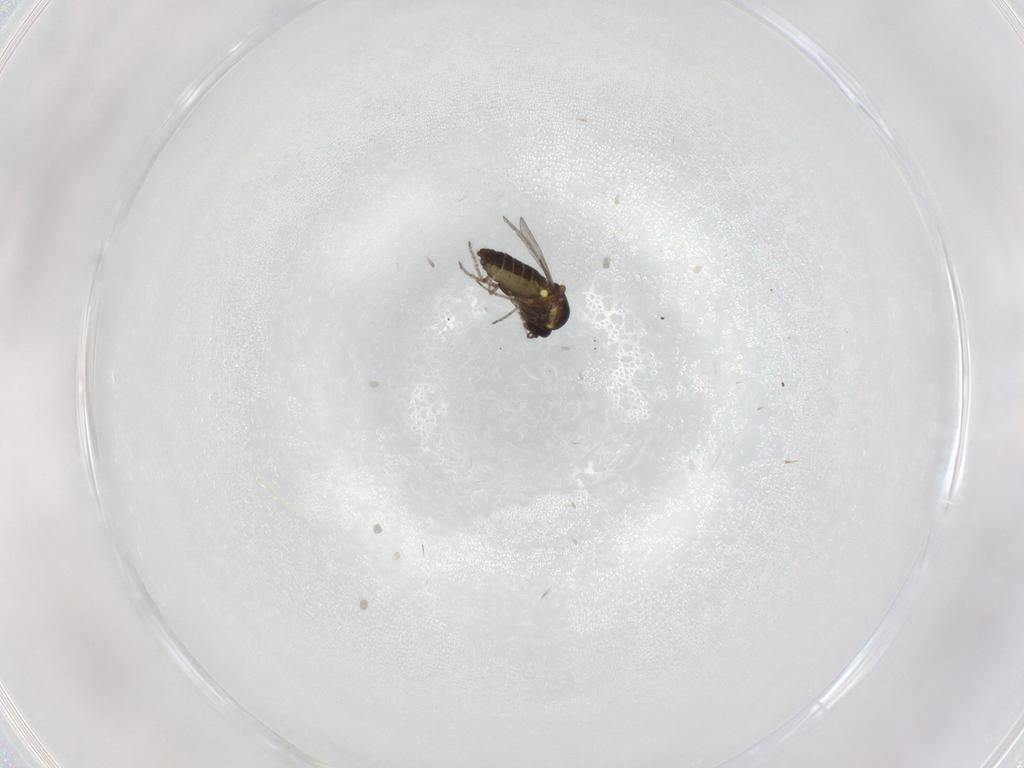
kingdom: Animalia
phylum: Arthropoda
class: Insecta
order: Diptera
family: Ceratopogonidae
